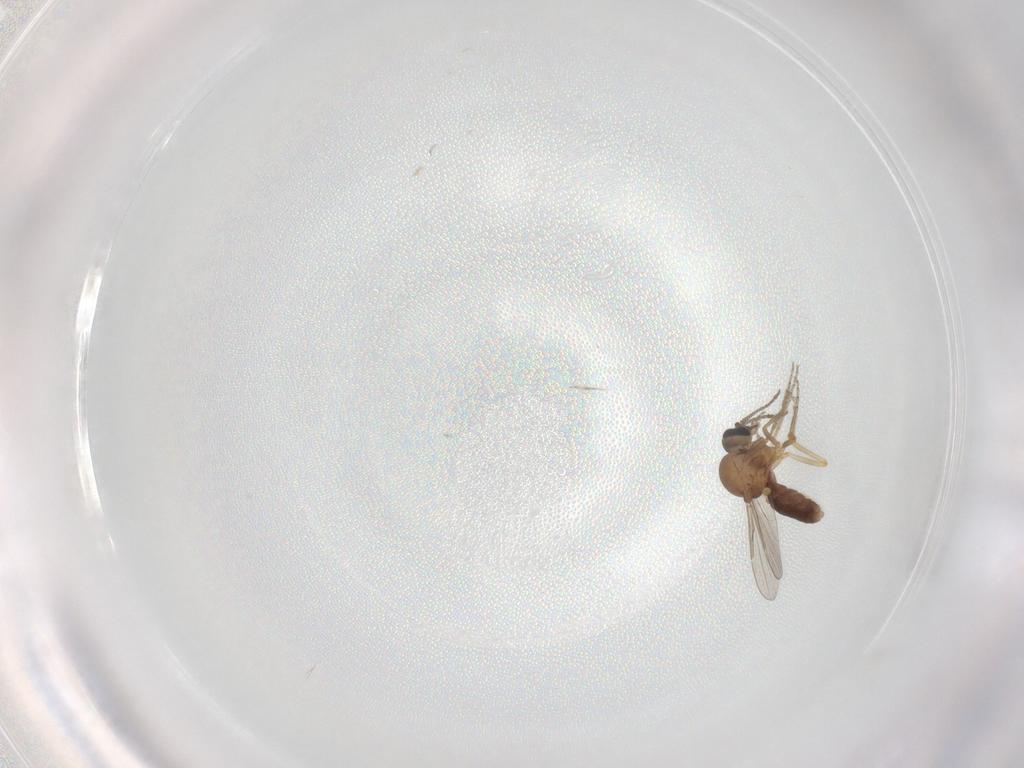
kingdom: Animalia
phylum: Arthropoda
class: Insecta
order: Diptera
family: Ceratopogonidae
